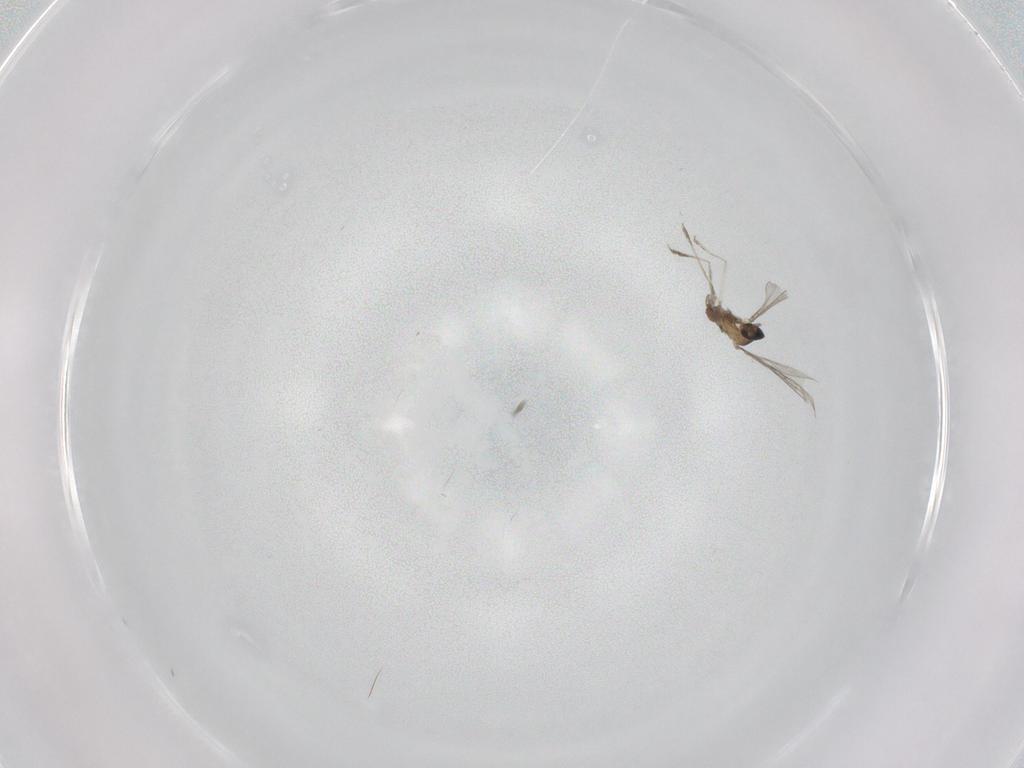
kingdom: Animalia
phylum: Arthropoda
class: Insecta
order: Diptera
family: Cecidomyiidae
